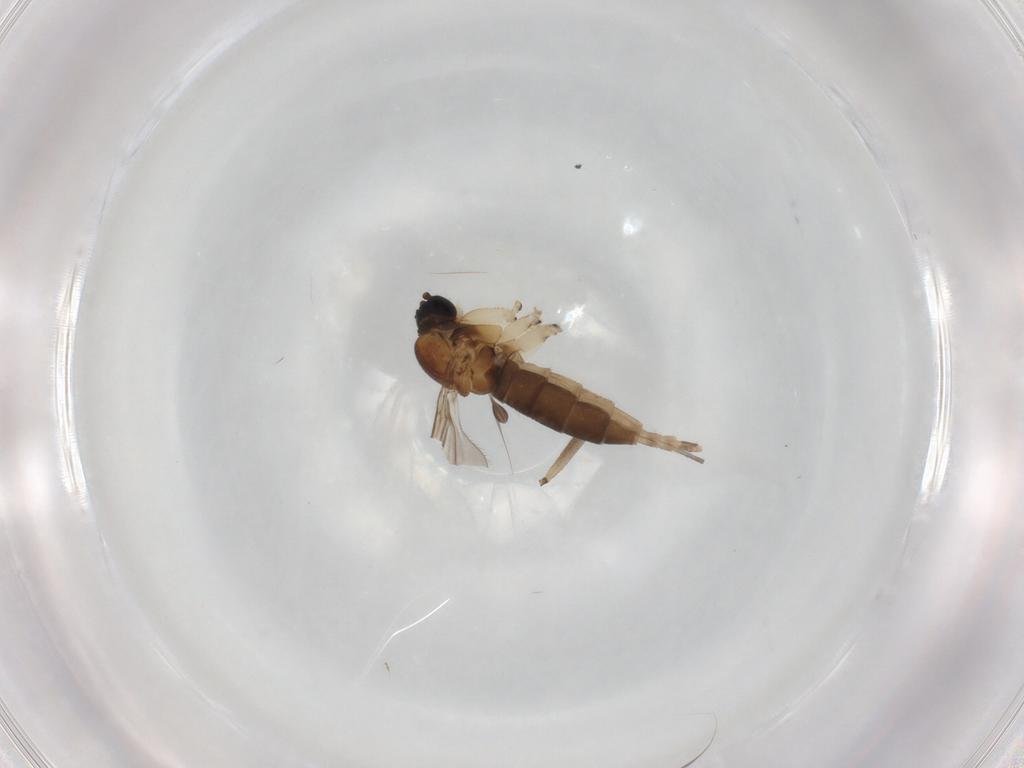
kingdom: Animalia
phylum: Arthropoda
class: Insecta
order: Diptera
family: Sciaridae
